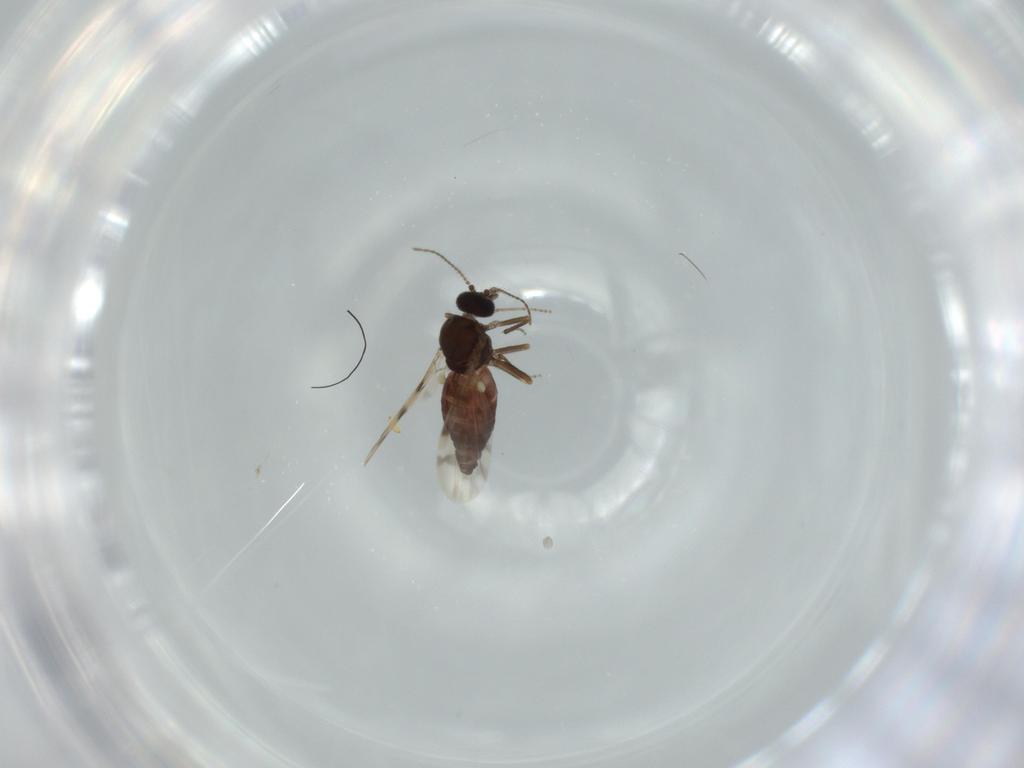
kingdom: Animalia
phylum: Arthropoda
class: Insecta
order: Diptera
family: Ceratopogonidae
